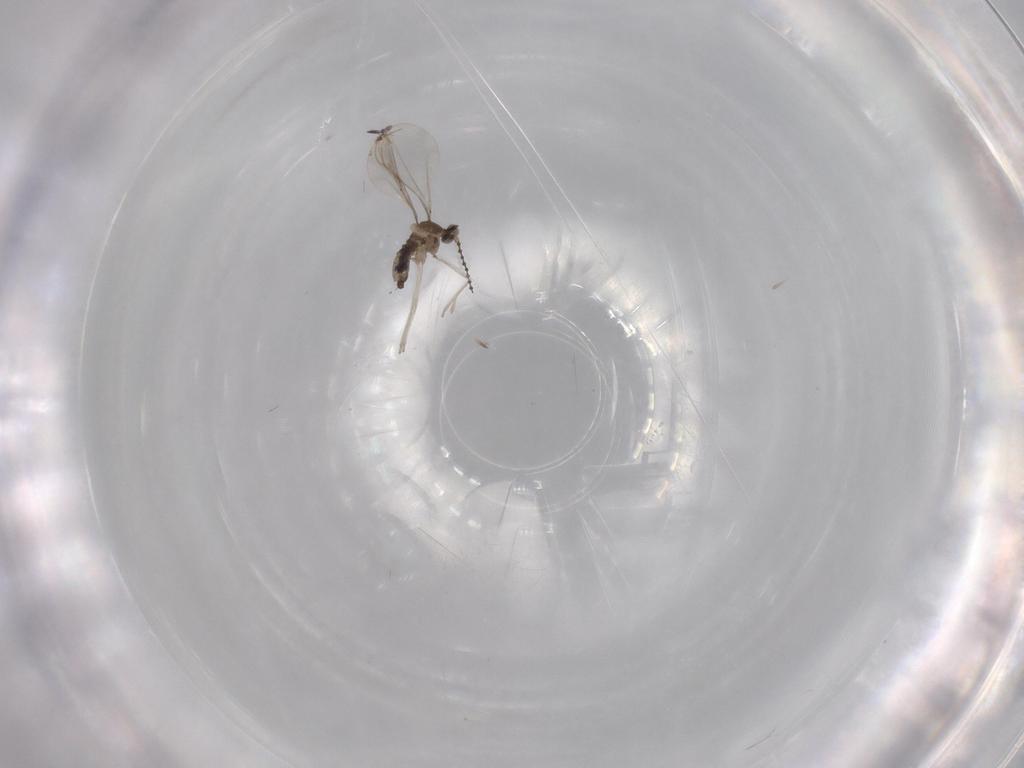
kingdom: Animalia
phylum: Arthropoda
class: Insecta
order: Diptera
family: Cecidomyiidae
